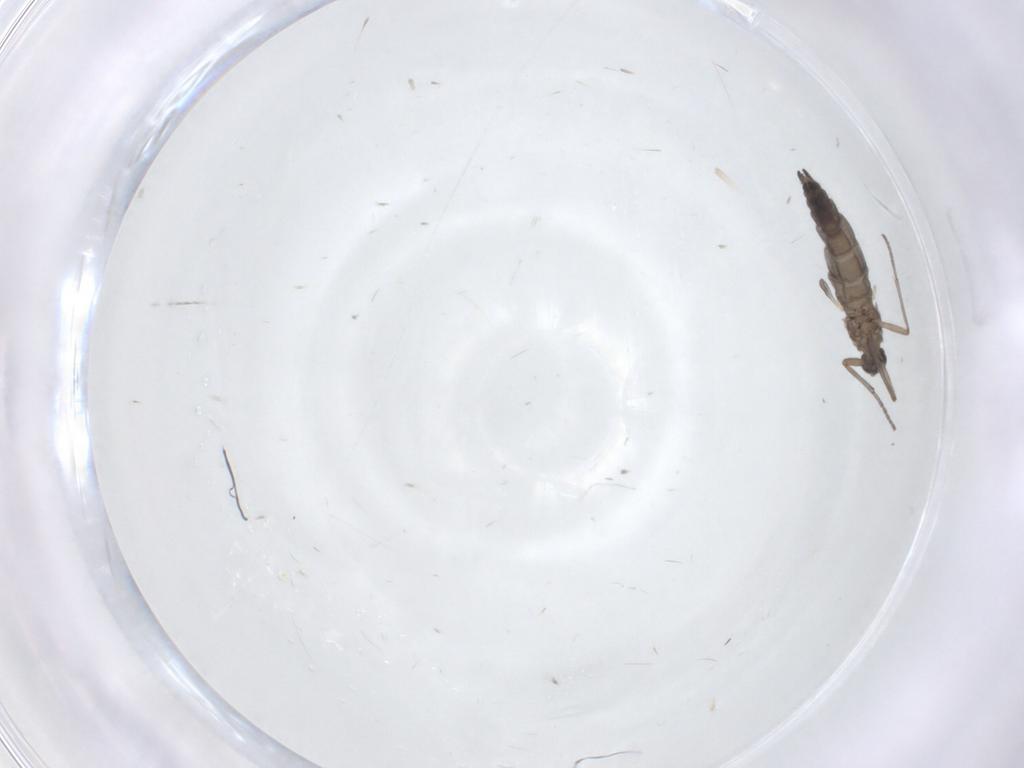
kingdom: Animalia
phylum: Arthropoda
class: Insecta
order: Diptera
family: Sciaridae
